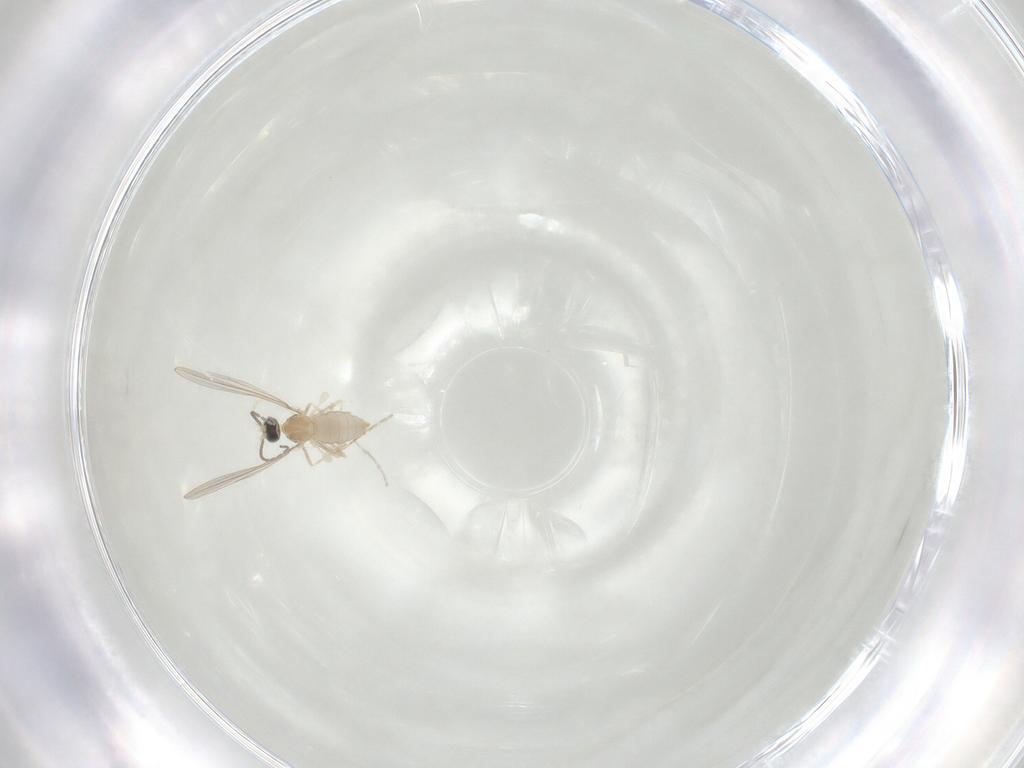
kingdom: Animalia
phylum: Arthropoda
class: Insecta
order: Diptera
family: Cecidomyiidae
